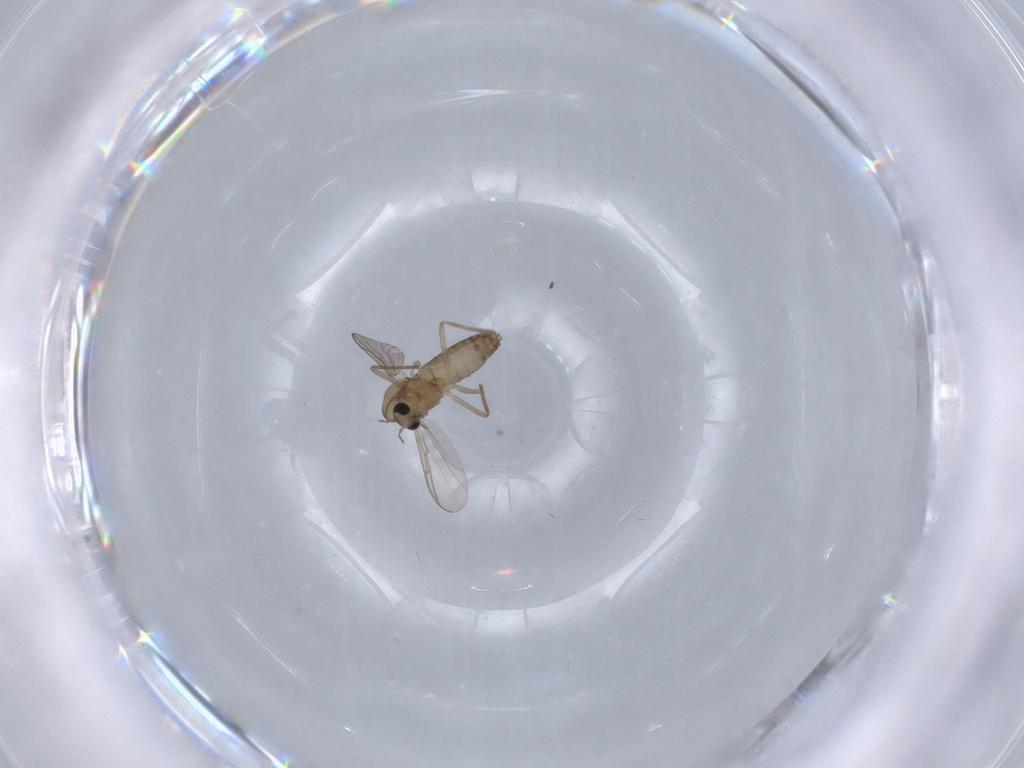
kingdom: Animalia
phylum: Arthropoda
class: Insecta
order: Diptera
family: Chironomidae
